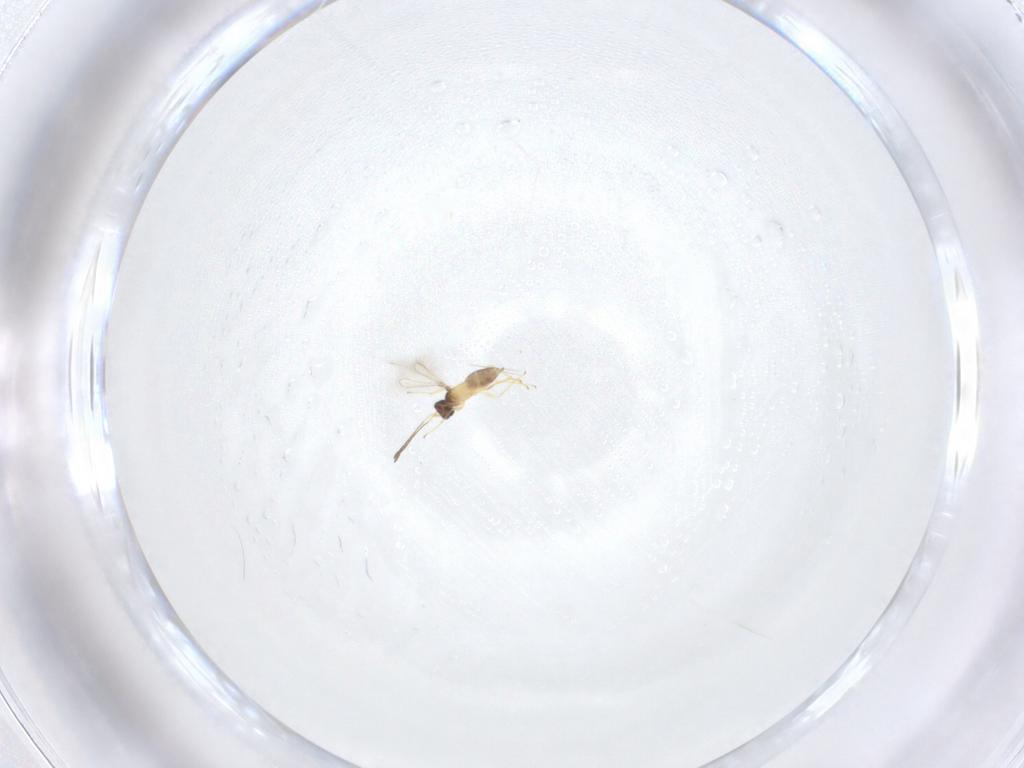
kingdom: Animalia
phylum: Arthropoda
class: Insecta
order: Hymenoptera
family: Mymaridae
